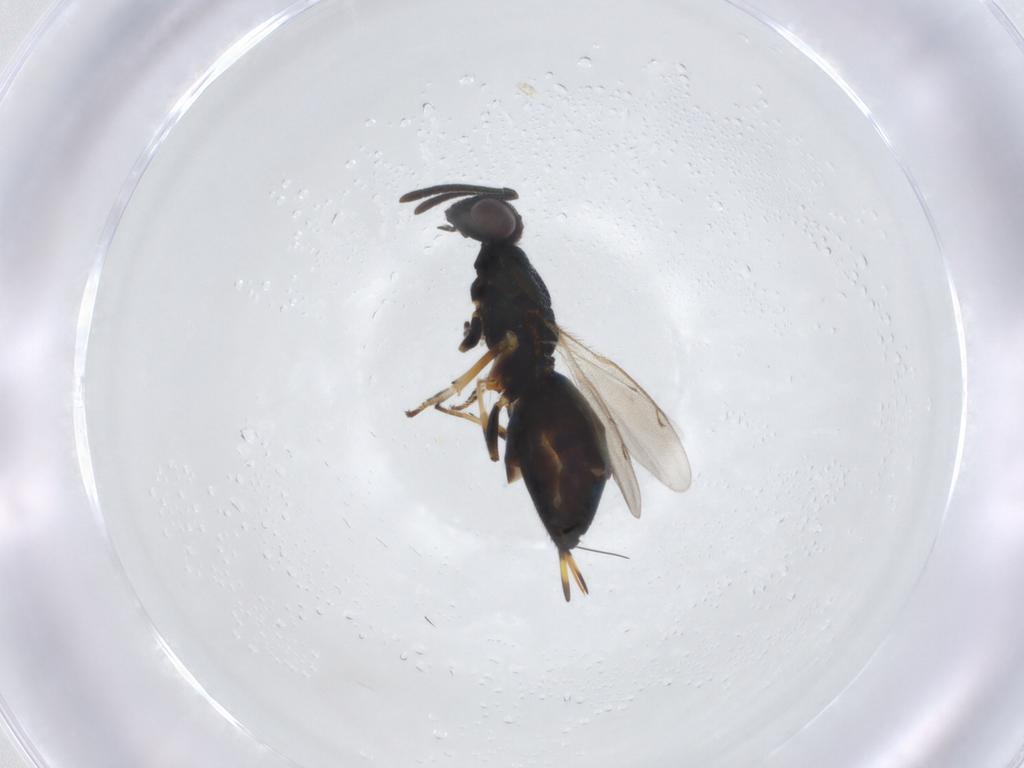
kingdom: Animalia
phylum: Arthropoda
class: Insecta
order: Hymenoptera
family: Eupelmidae
